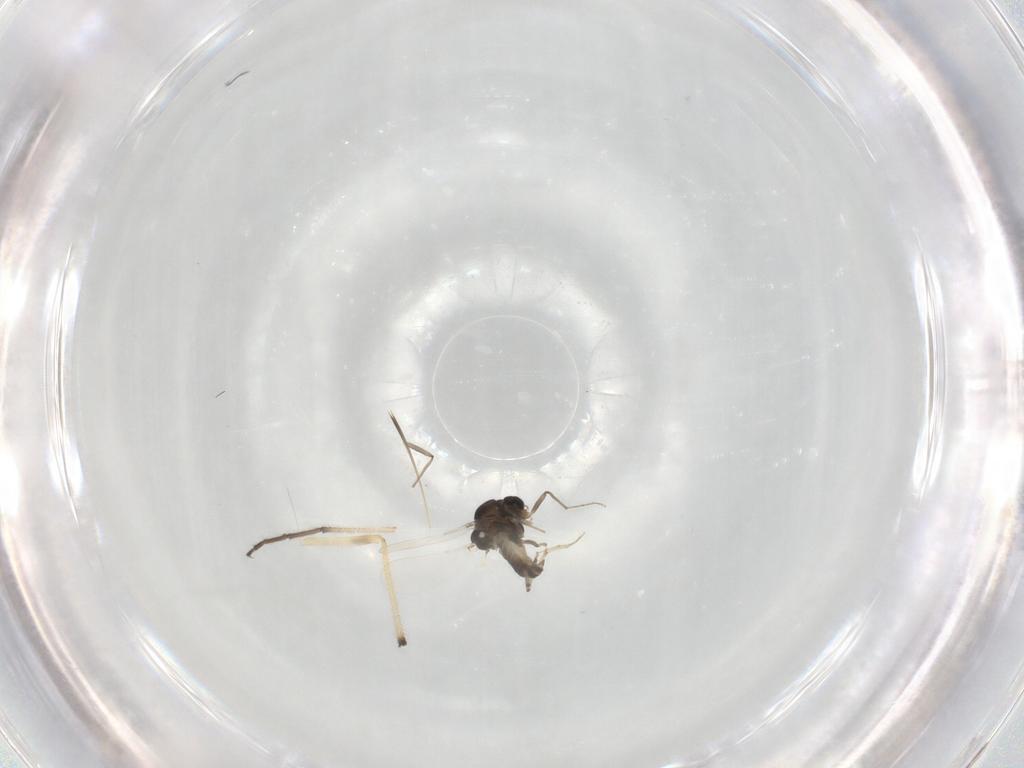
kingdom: Animalia
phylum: Arthropoda
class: Insecta
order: Diptera
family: Chironomidae
